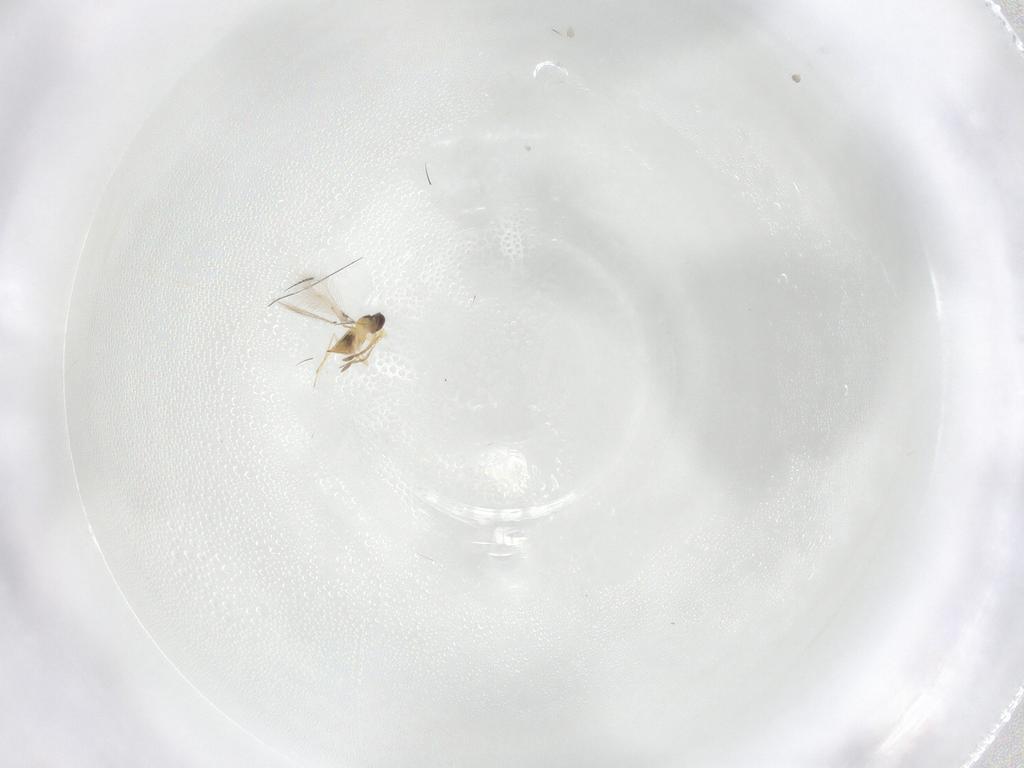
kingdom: Animalia
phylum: Arthropoda
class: Insecta
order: Hymenoptera
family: Mymaridae
